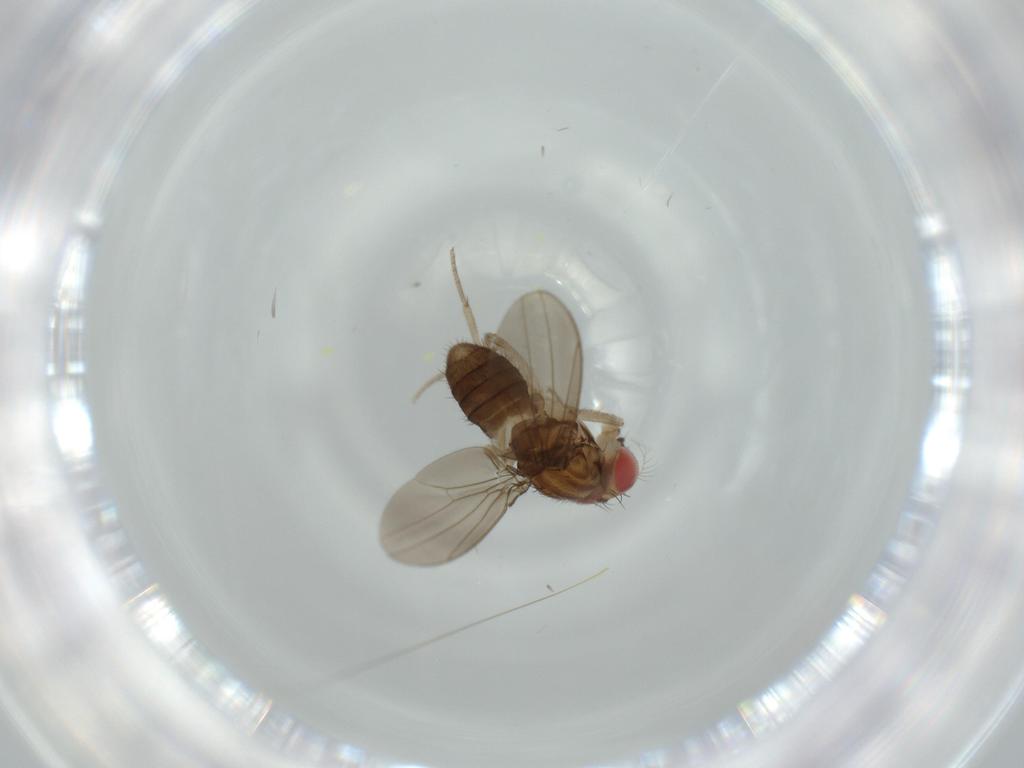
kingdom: Animalia
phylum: Arthropoda
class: Insecta
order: Diptera
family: Drosophilidae
